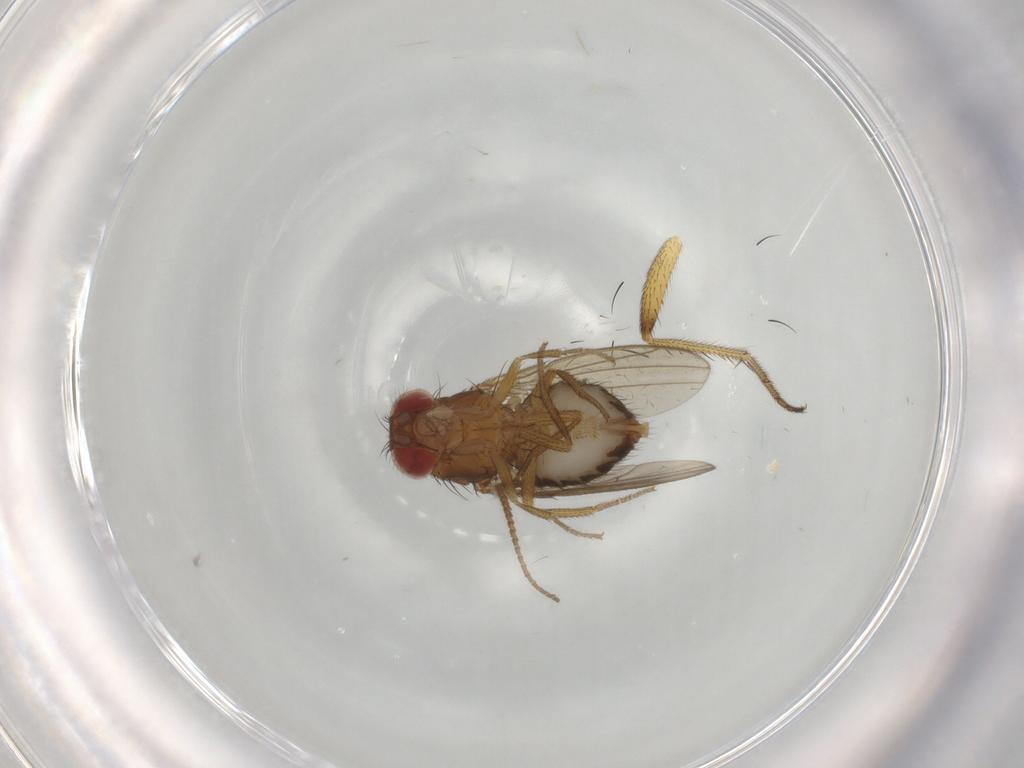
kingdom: Animalia
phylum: Arthropoda
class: Insecta
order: Diptera
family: Drosophilidae
